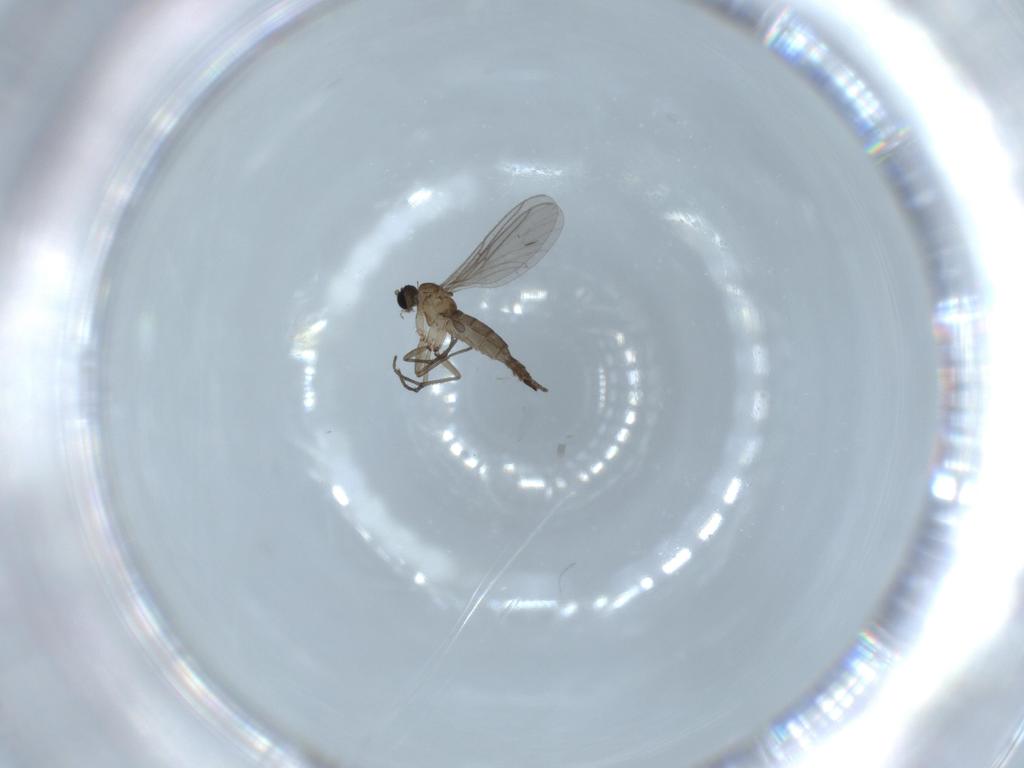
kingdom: Animalia
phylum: Arthropoda
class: Insecta
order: Diptera
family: Sciaridae
